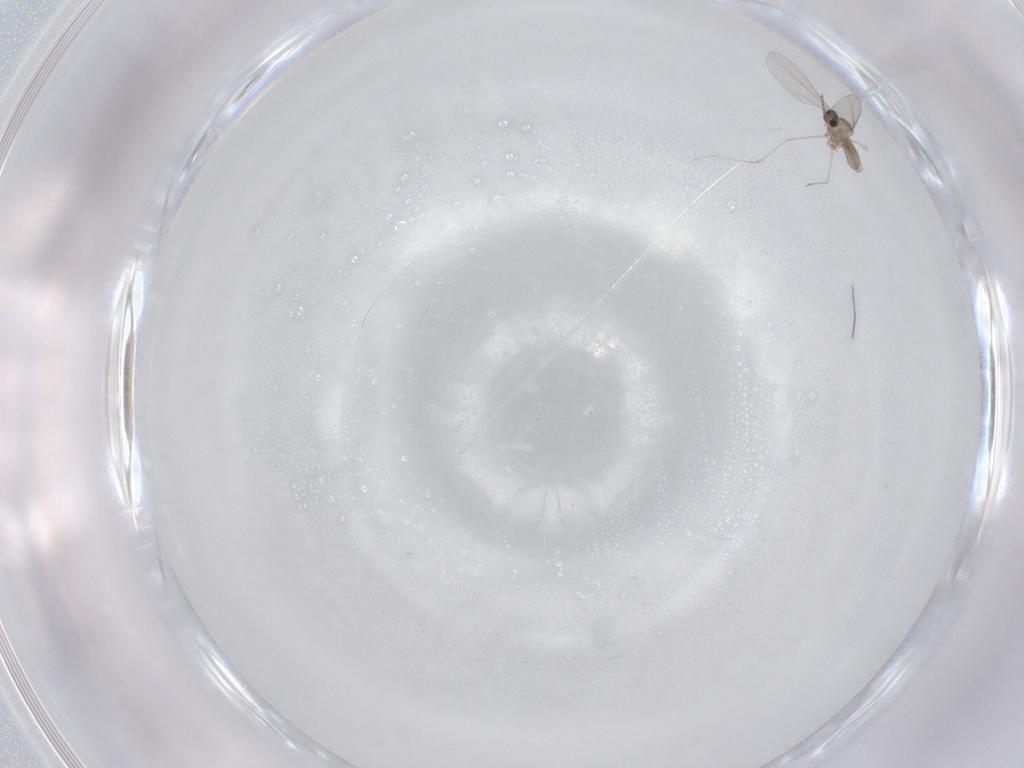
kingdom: Animalia
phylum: Arthropoda
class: Insecta
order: Diptera
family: Cecidomyiidae
